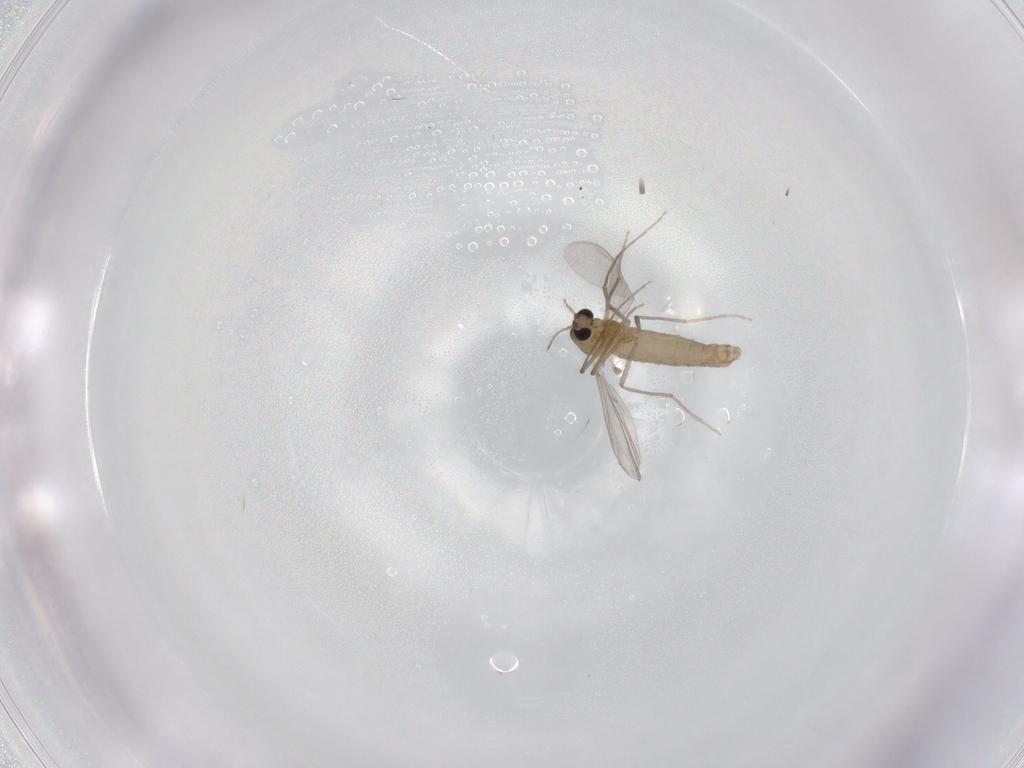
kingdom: Animalia
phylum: Arthropoda
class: Insecta
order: Diptera
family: Chironomidae
